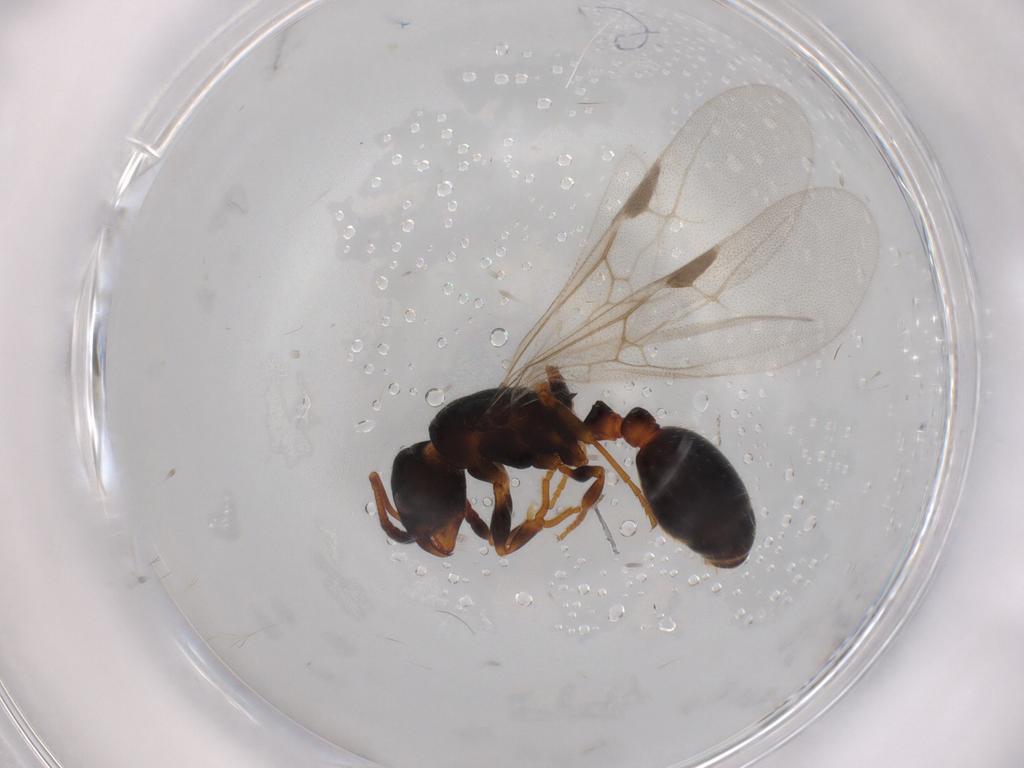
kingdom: Animalia
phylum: Arthropoda
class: Insecta
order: Hymenoptera
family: Formicidae
